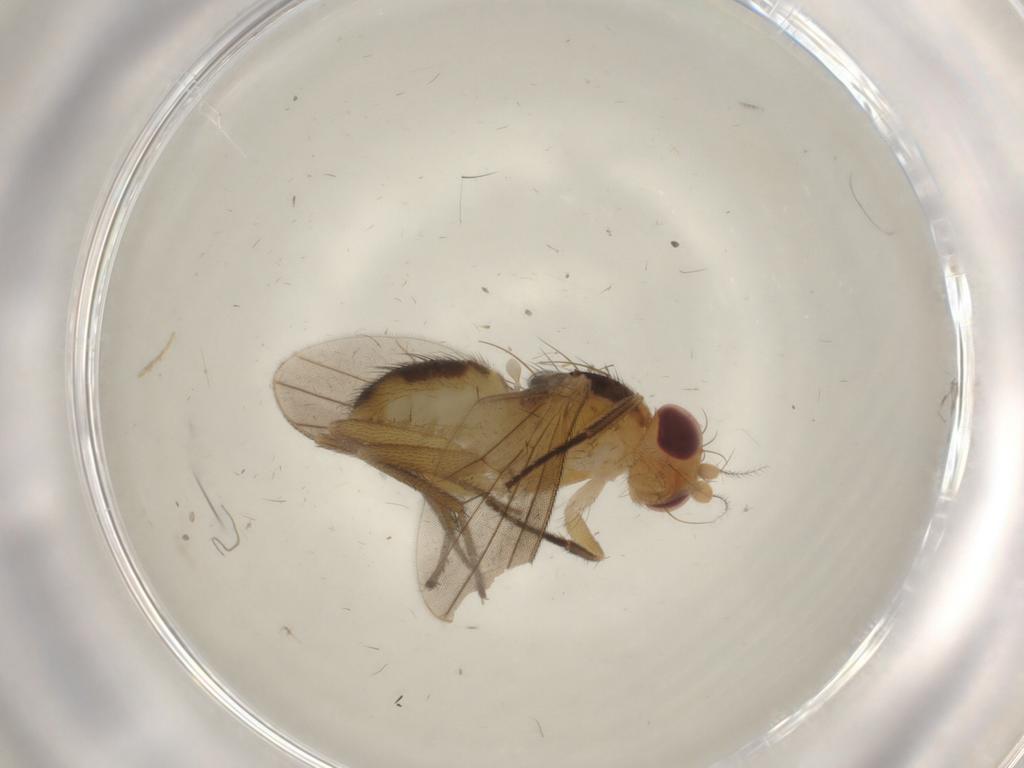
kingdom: Animalia
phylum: Arthropoda
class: Insecta
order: Diptera
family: Clusiidae
